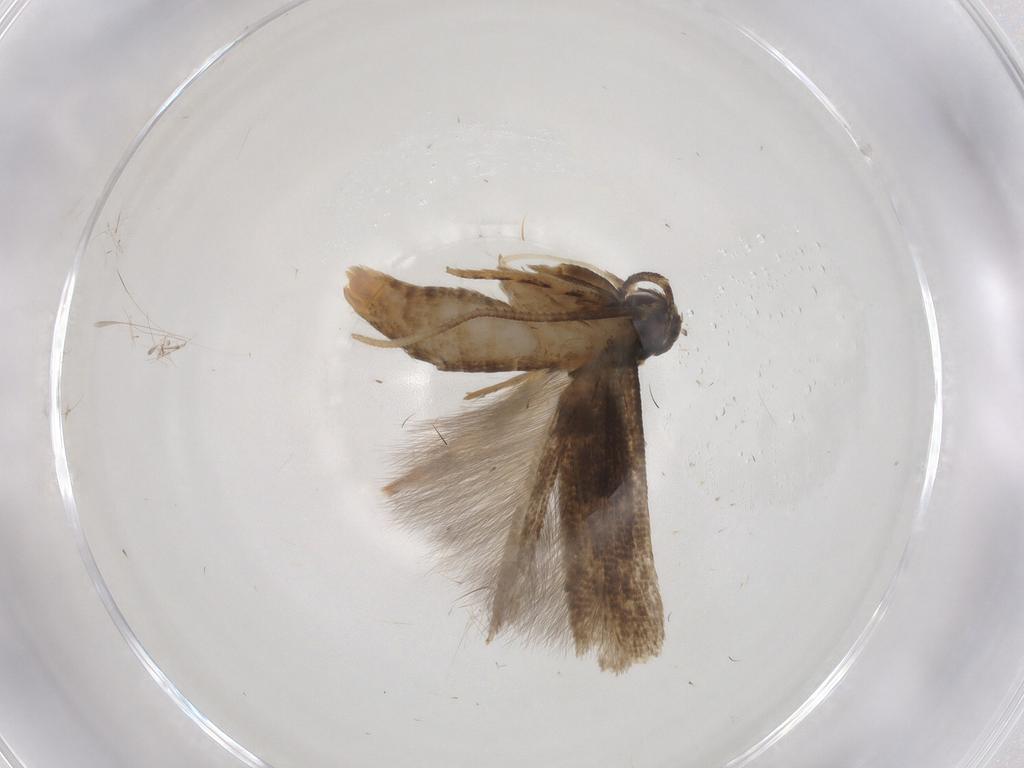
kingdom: Animalia
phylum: Arthropoda
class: Insecta
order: Lepidoptera
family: Cosmopterigidae
